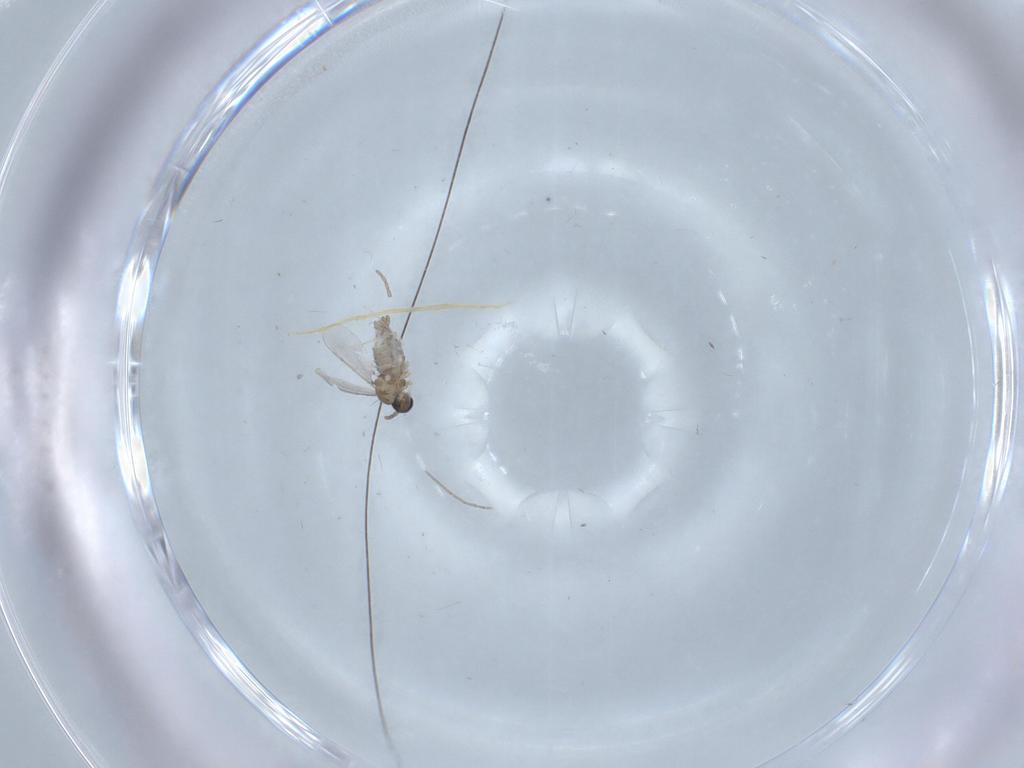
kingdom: Animalia
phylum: Arthropoda
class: Insecta
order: Diptera
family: Cecidomyiidae
